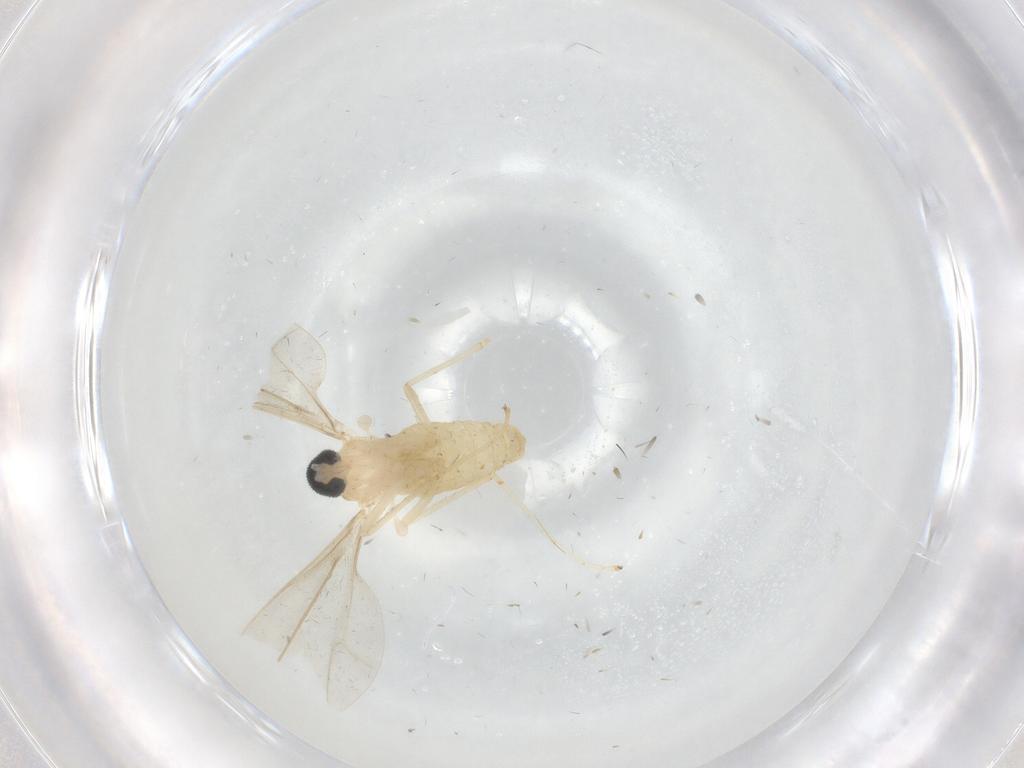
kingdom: Animalia
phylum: Arthropoda
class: Insecta
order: Diptera
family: Cecidomyiidae
